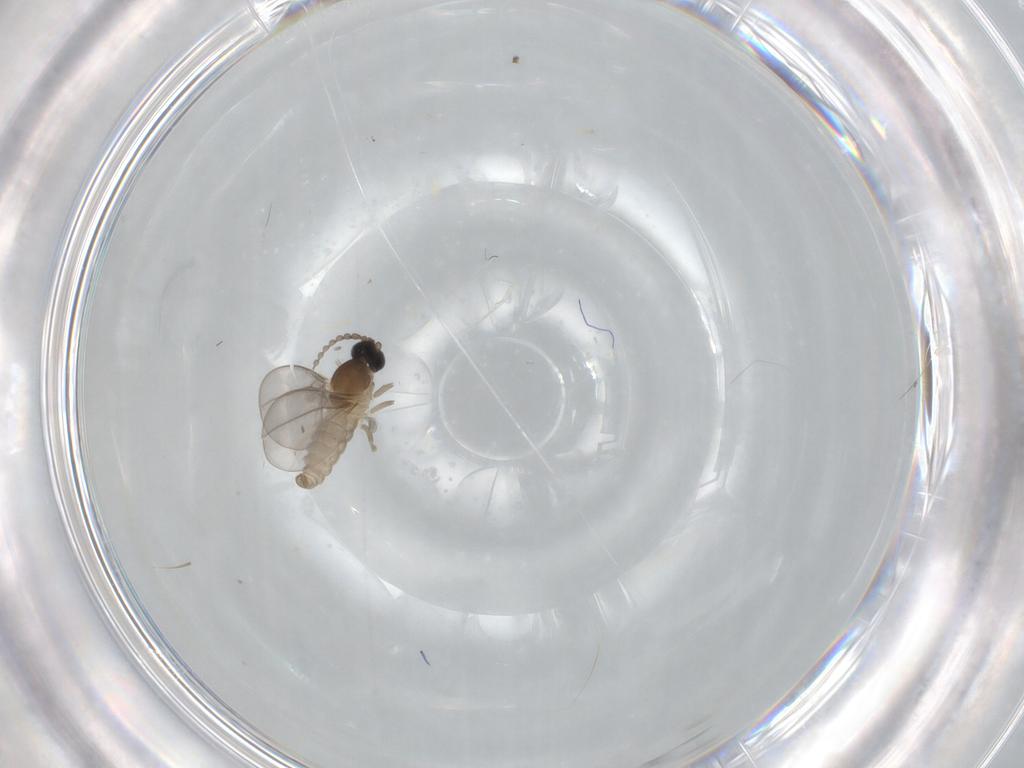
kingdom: Animalia
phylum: Arthropoda
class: Insecta
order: Diptera
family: Cecidomyiidae
